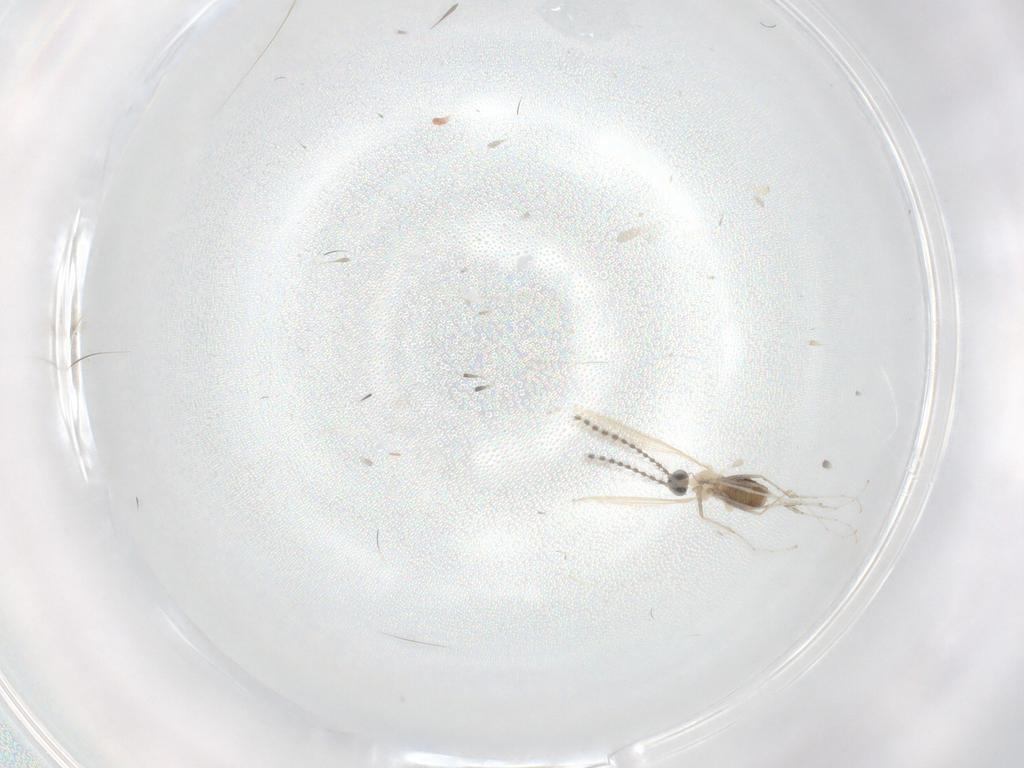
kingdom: Animalia
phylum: Arthropoda
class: Insecta
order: Diptera
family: Cecidomyiidae
